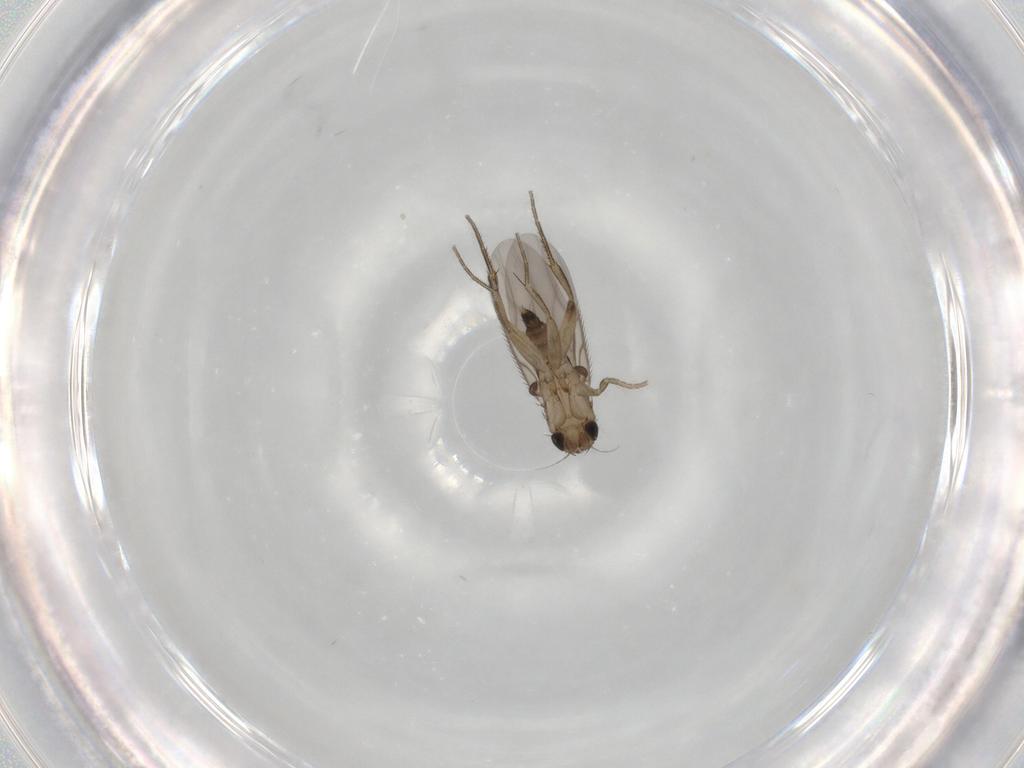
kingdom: Animalia
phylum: Arthropoda
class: Insecta
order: Diptera
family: Phoridae
